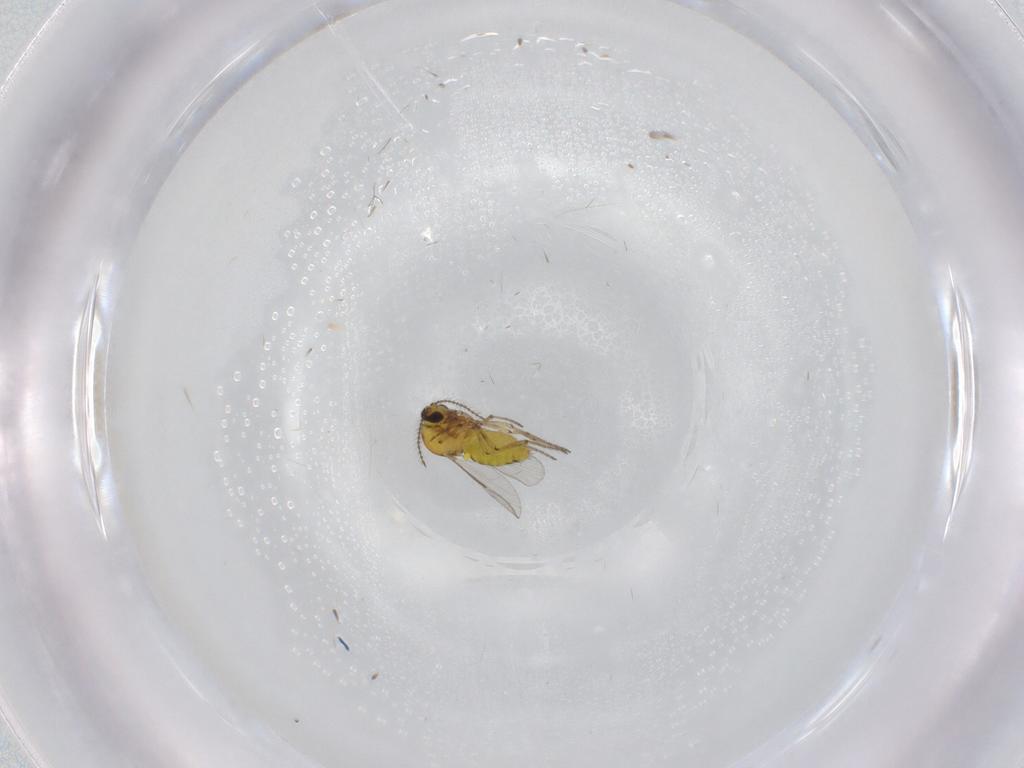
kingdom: Animalia
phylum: Arthropoda
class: Insecta
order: Diptera
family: Ceratopogonidae
